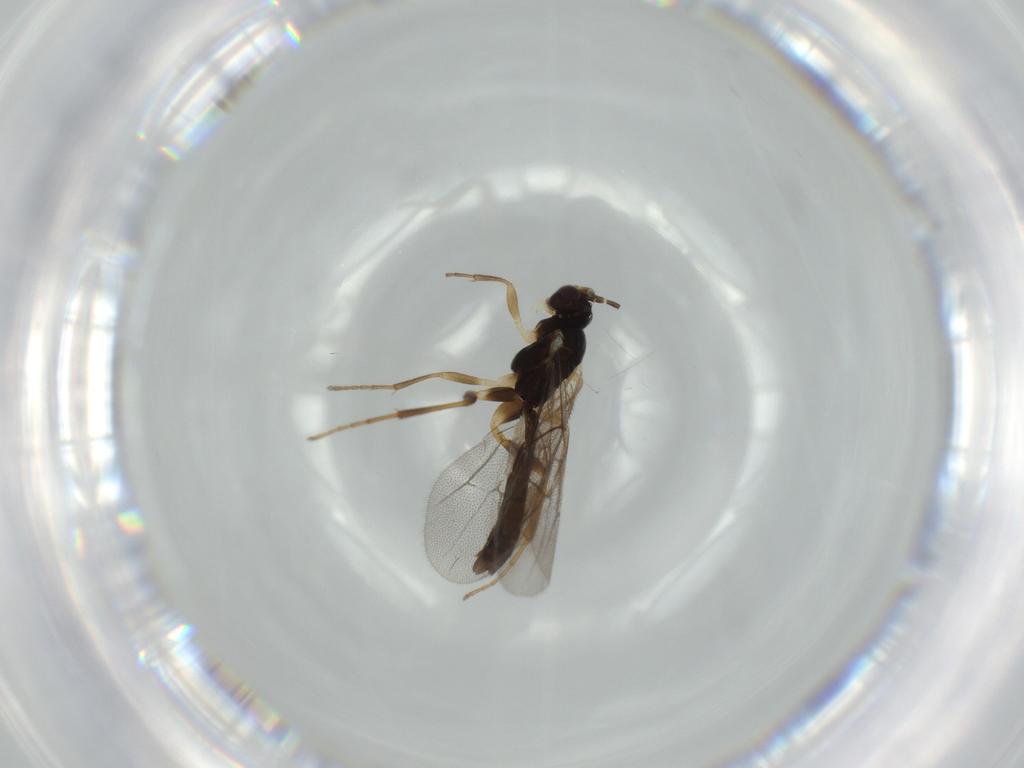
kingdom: Animalia
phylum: Arthropoda
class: Insecta
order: Hymenoptera
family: Ichneumonidae
